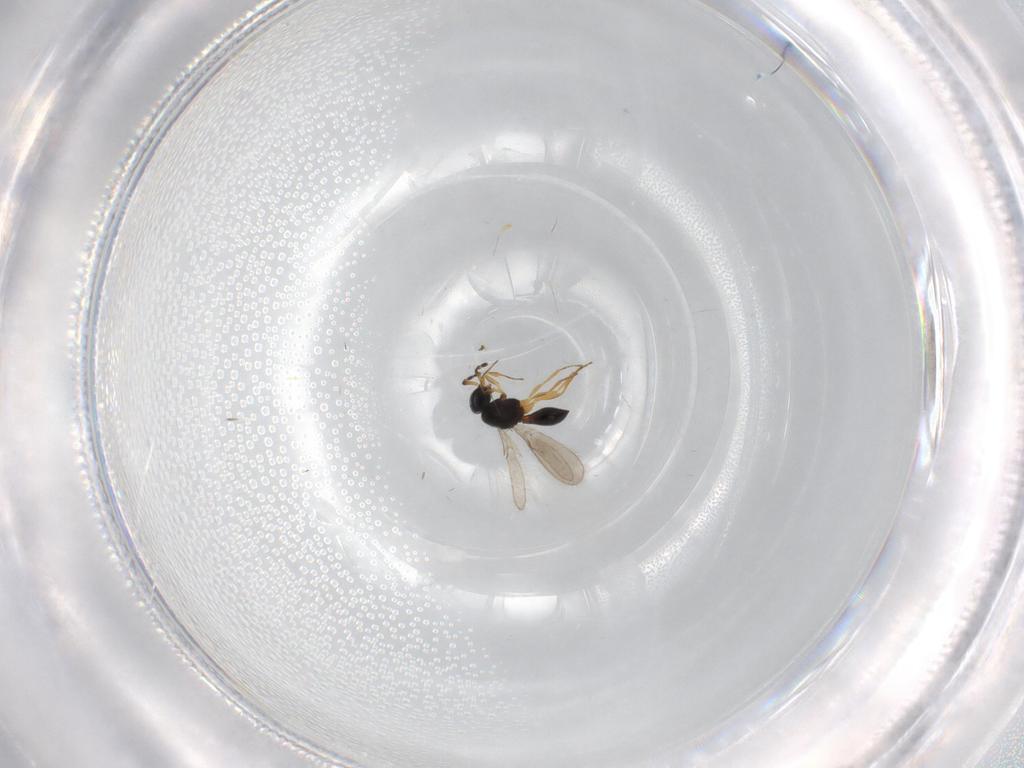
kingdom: Animalia
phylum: Arthropoda
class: Insecta
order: Hymenoptera
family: Scelionidae
